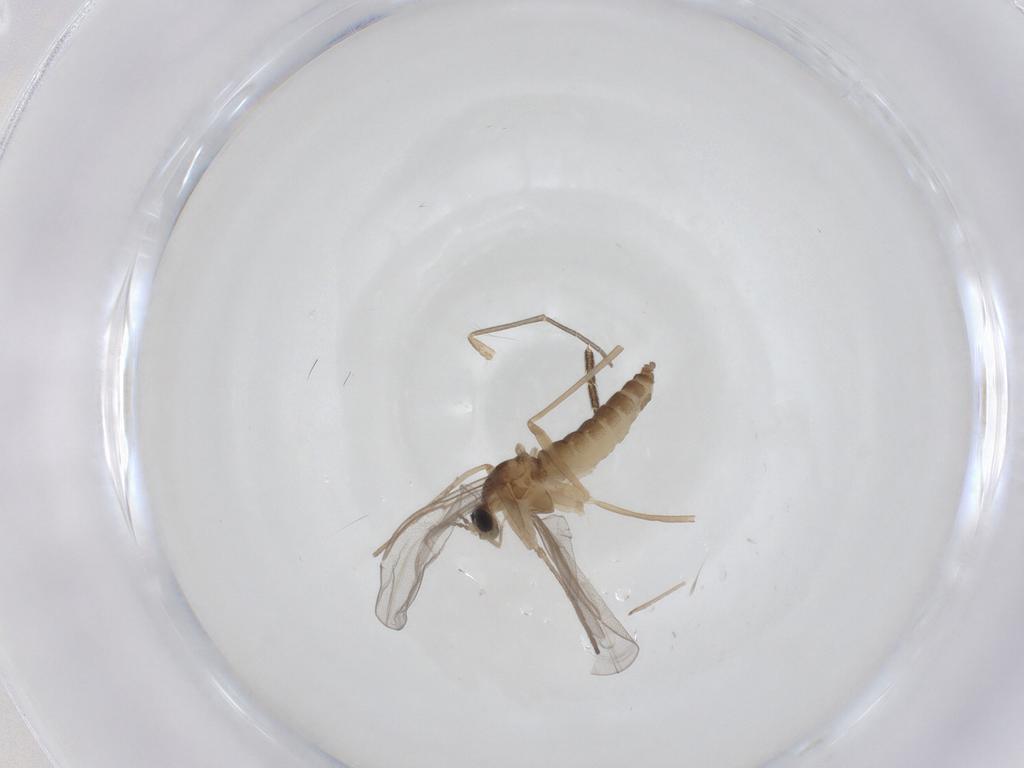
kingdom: Animalia
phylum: Arthropoda
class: Insecta
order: Diptera
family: Cecidomyiidae
